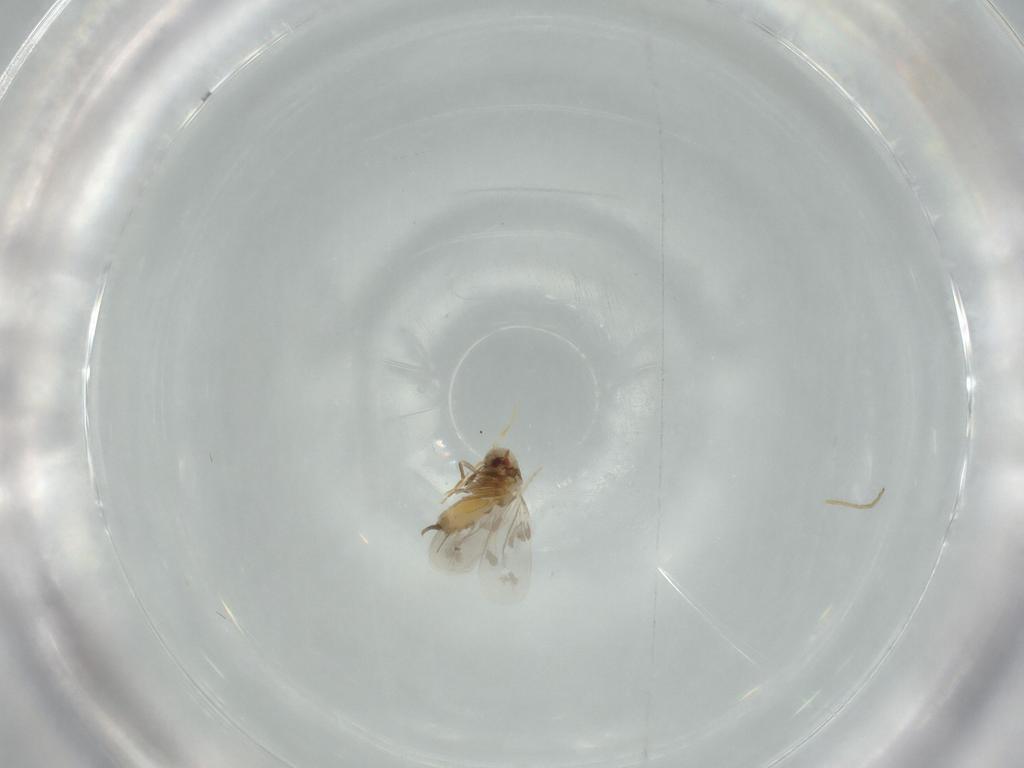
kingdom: Animalia
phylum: Arthropoda
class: Insecta
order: Hemiptera
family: Aleyrodidae
